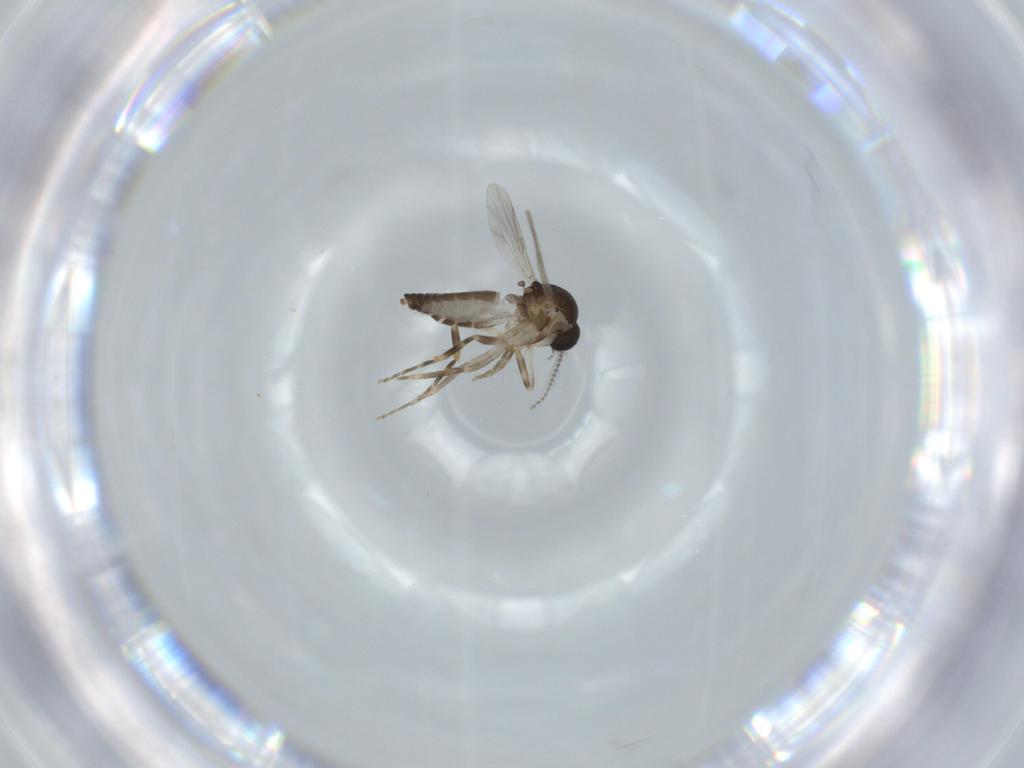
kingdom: Animalia
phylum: Arthropoda
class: Insecta
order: Diptera
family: Ceratopogonidae
